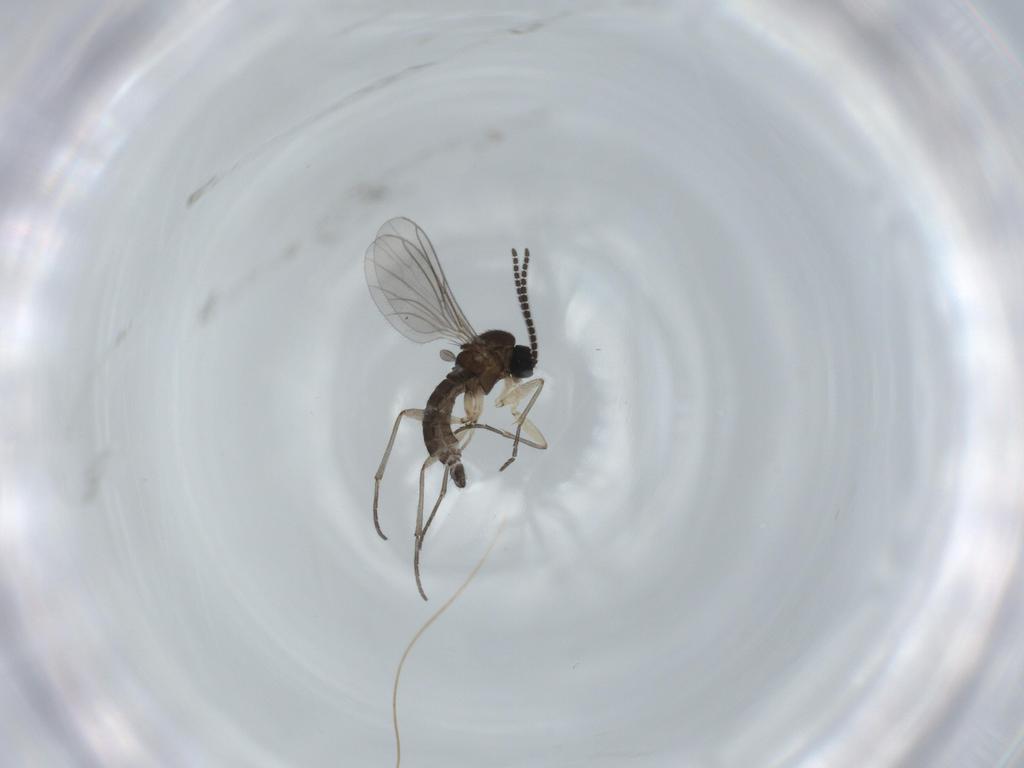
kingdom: Animalia
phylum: Arthropoda
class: Insecta
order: Diptera
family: Sciaridae
